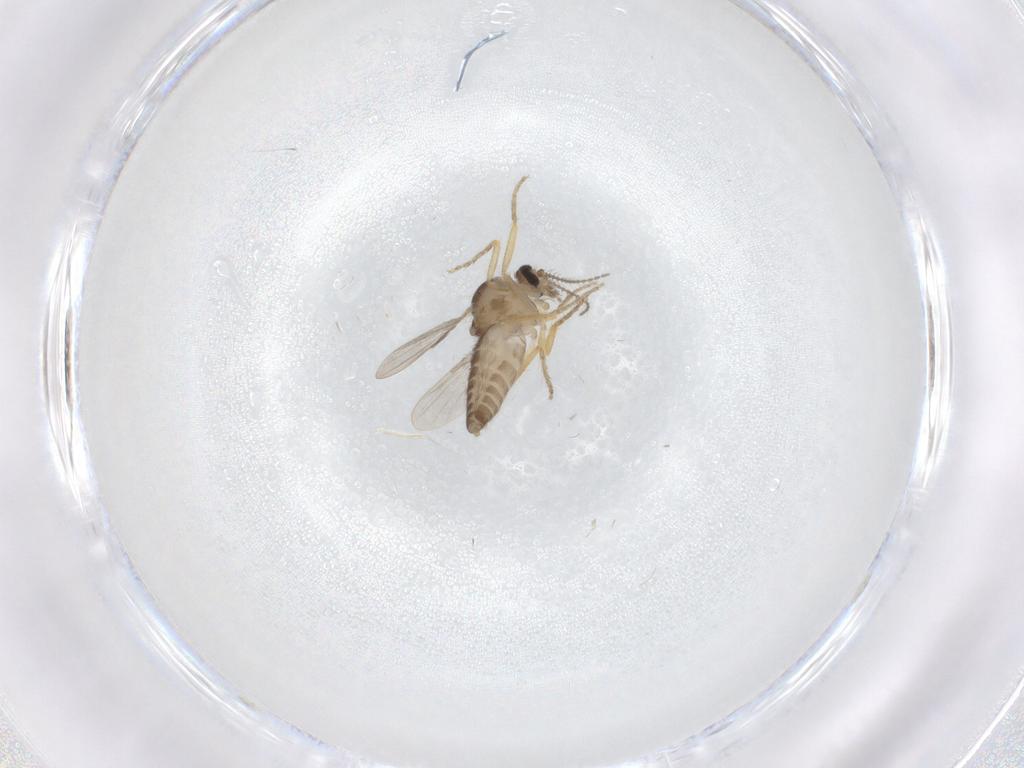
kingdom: Animalia
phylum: Arthropoda
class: Insecta
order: Diptera
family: Ceratopogonidae
